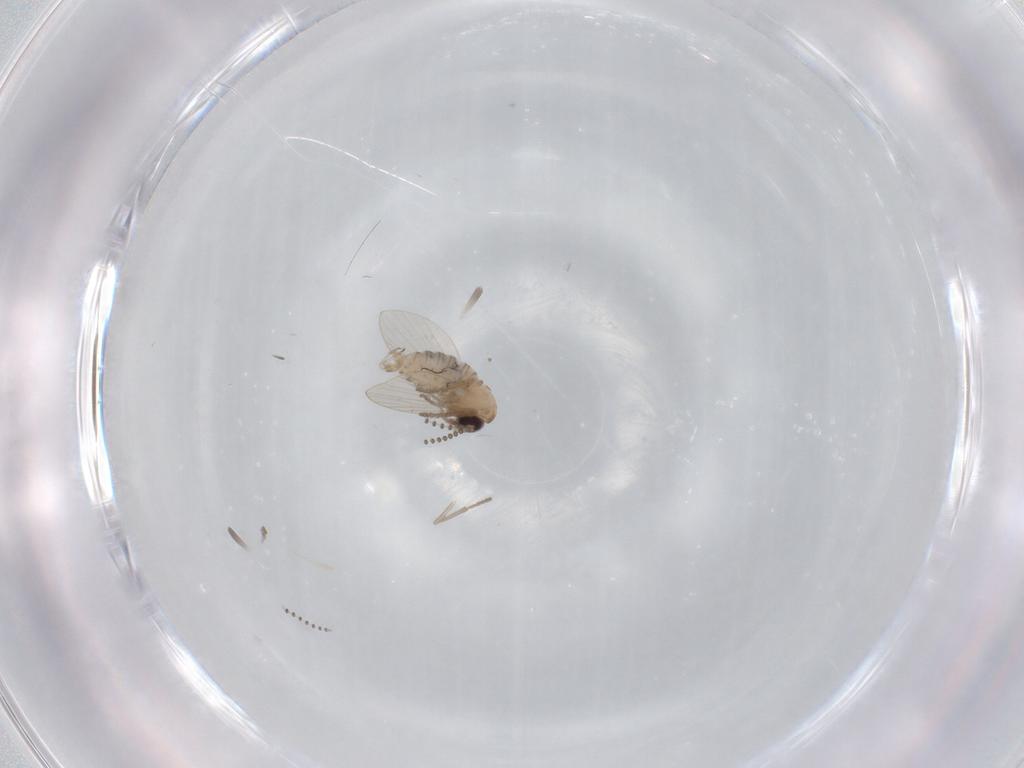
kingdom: Animalia
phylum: Arthropoda
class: Insecta
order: Diptera
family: Psychodidae
